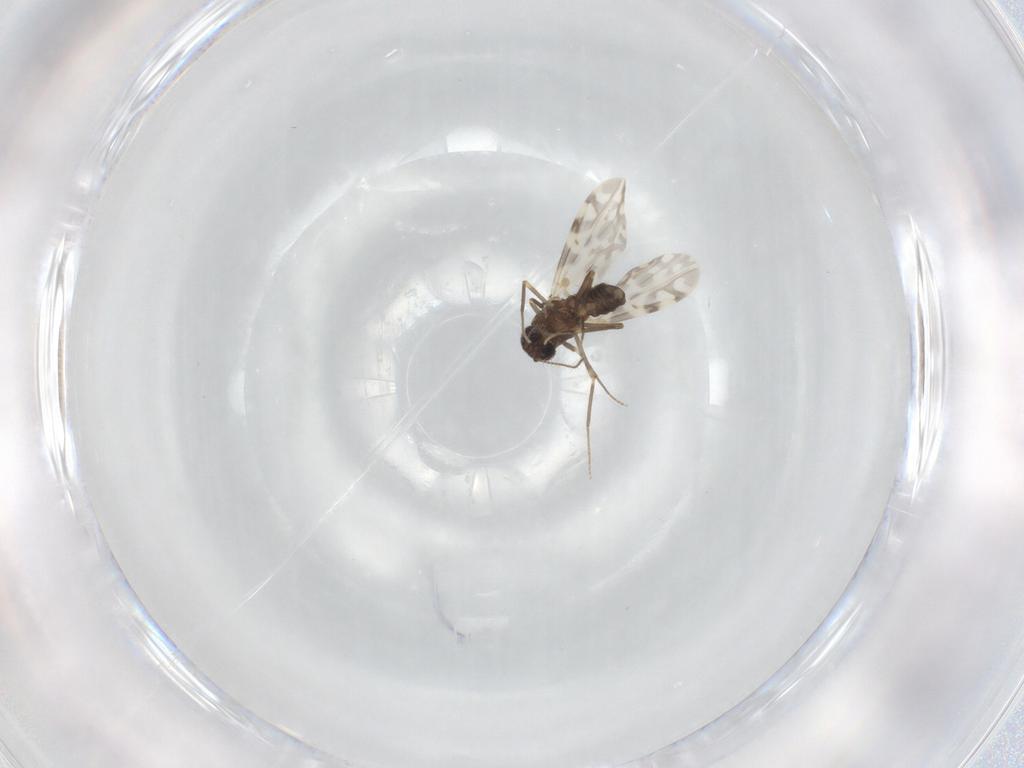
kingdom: Animalia
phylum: Arthropoda
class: Insecta
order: Diptera
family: Ceratopogonidae
